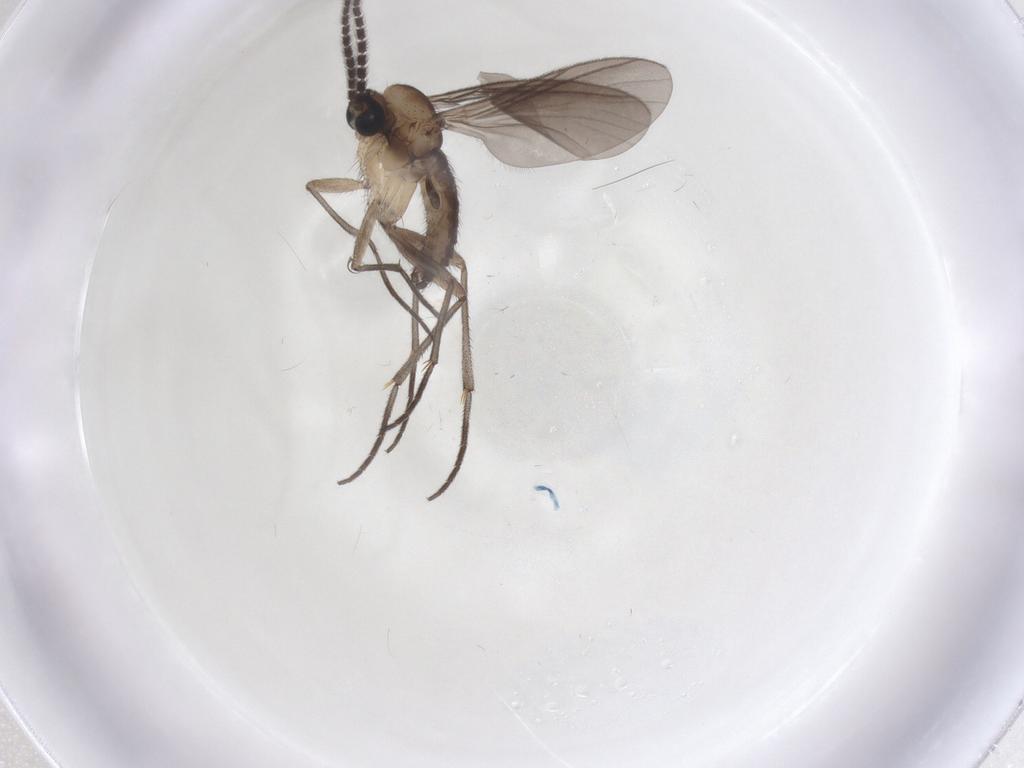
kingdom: Animalia
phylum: Arthropoda
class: Insecta
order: Diptera
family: Sciaridae
